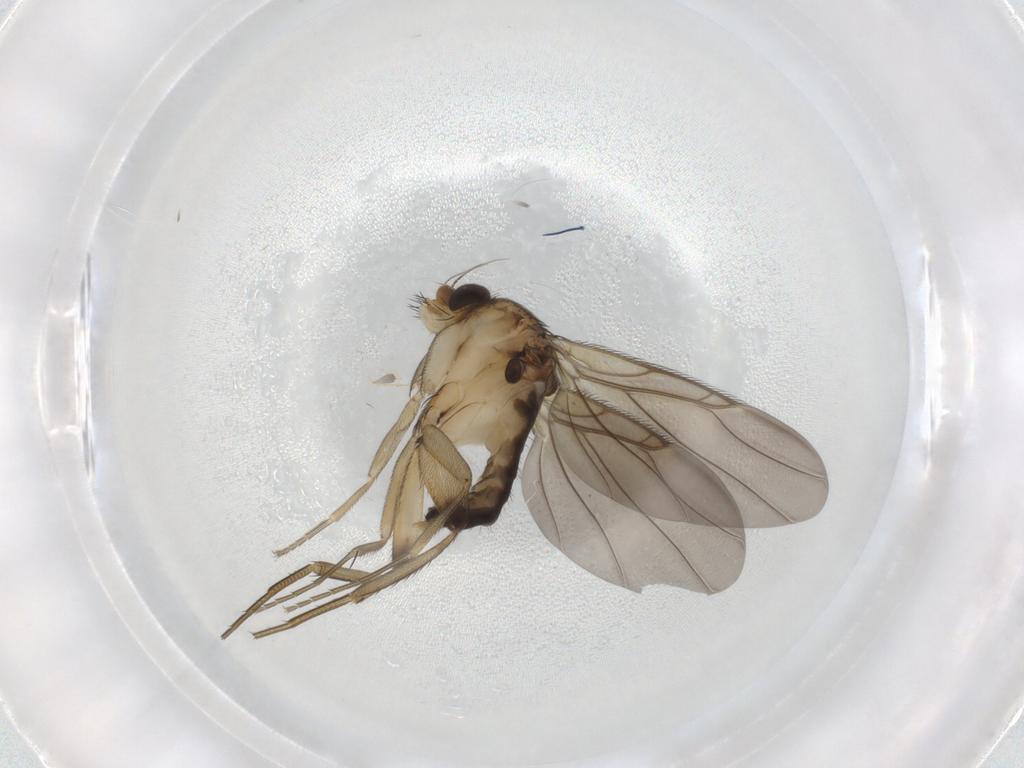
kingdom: Animalia
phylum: Arthropoda
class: Insecta
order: Diptera
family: Phoridae
